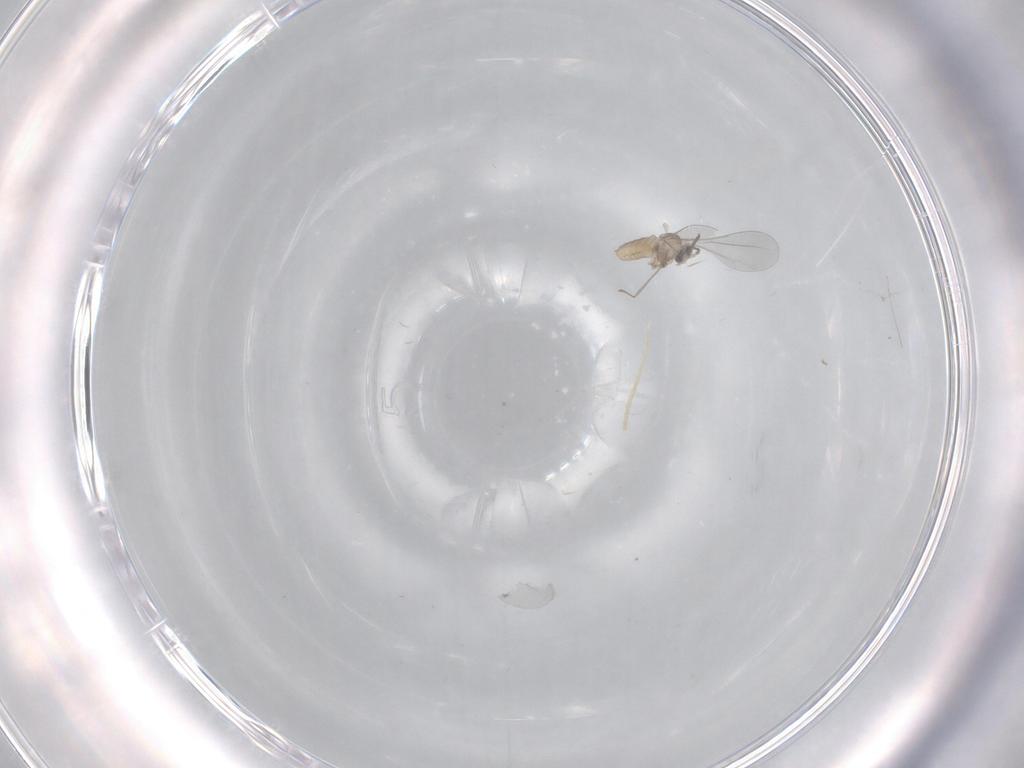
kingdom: Animalia
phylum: Arthropoda
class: Insecta
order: Diptera
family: Cecidomyiidae
